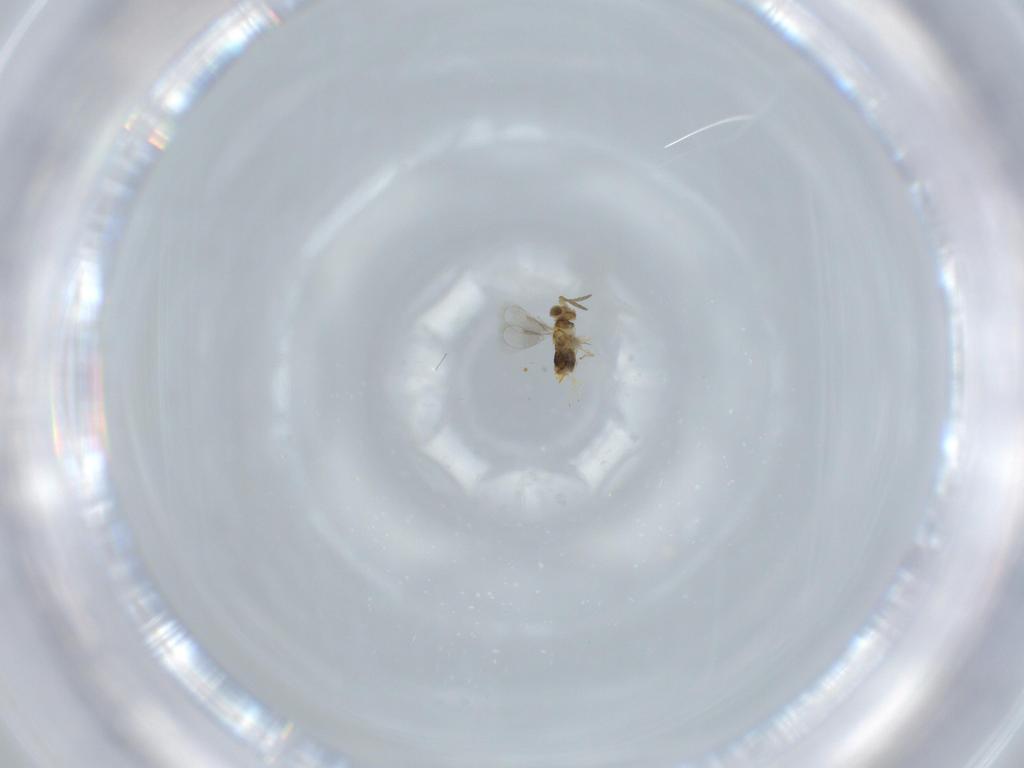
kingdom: Animalia
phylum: Arthropoda
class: Insecta
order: Hymenoptera
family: Aphelinidae
